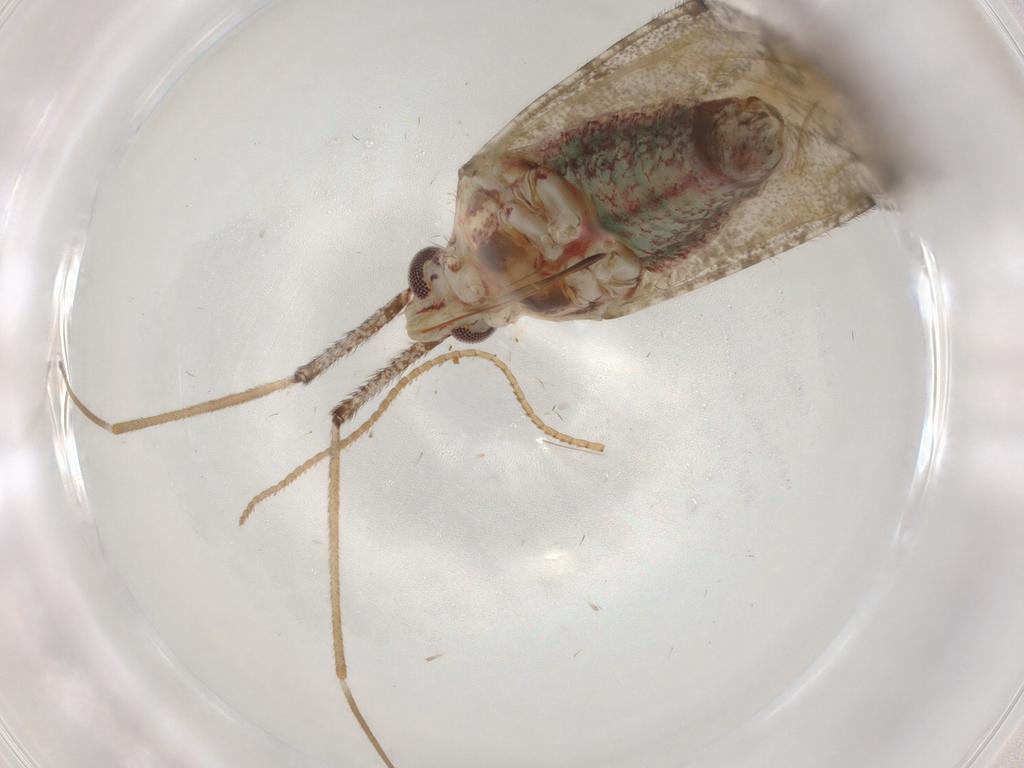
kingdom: Animalia
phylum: Arthropoda
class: Insecta
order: Hemiptera
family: Miridae
